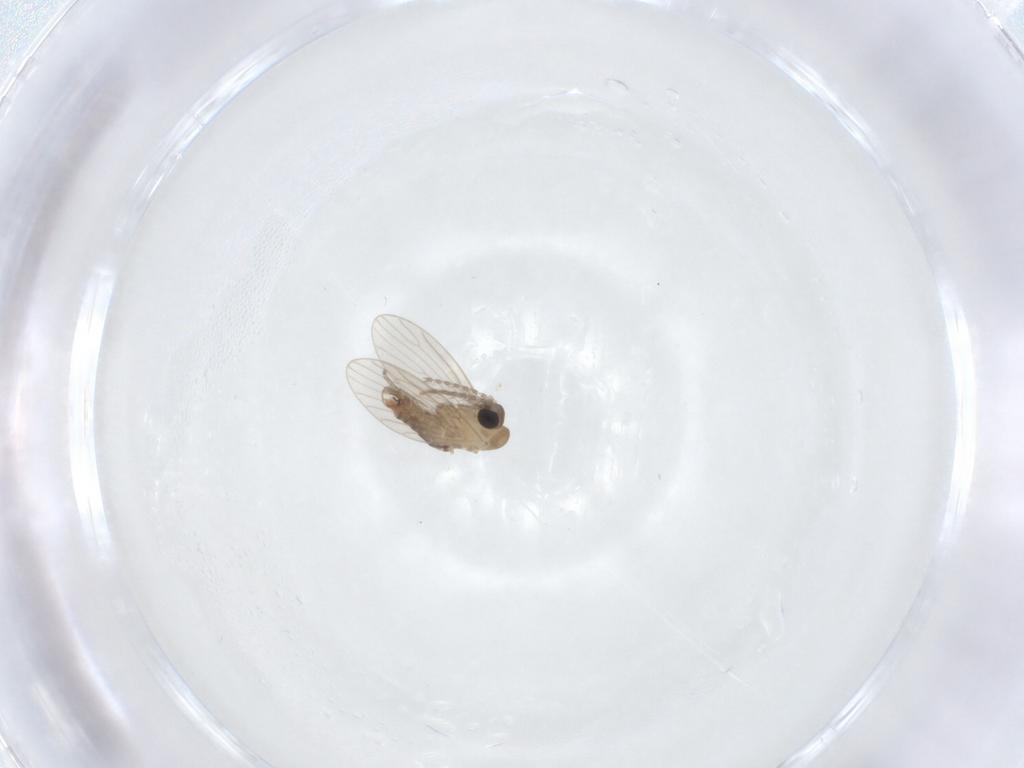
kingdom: Animalia
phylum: Arthropoda
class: Insecta
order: Diptera
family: Psychodidae
